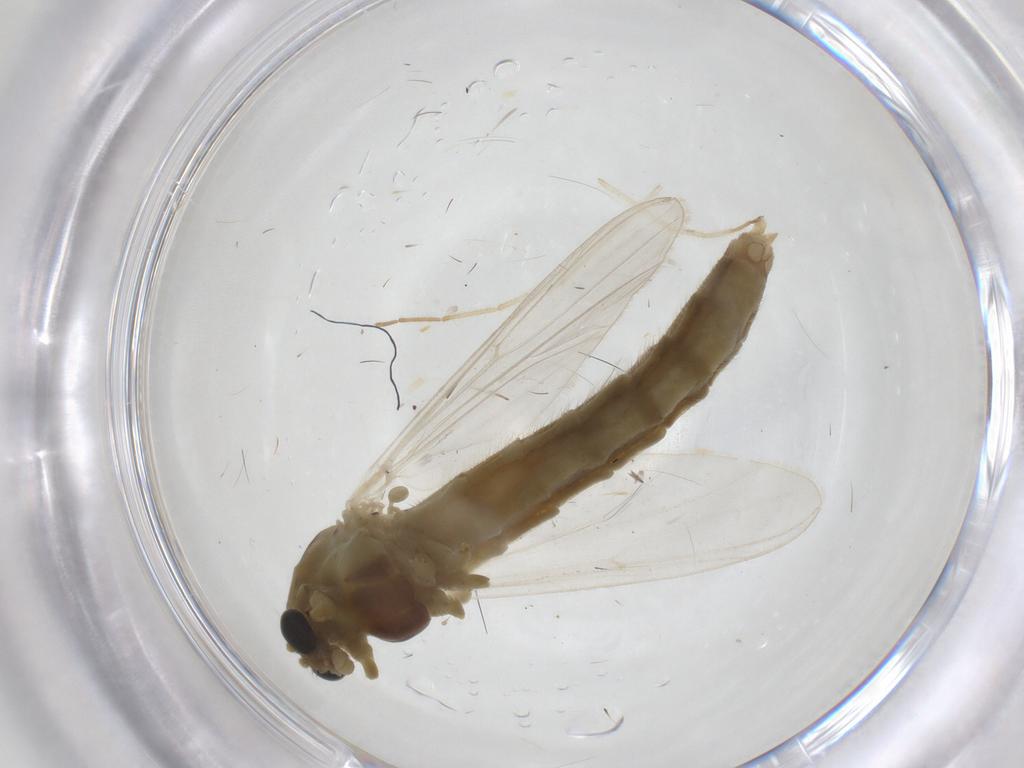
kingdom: Animalia
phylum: Arthropoda
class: Insecta
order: Diptera
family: Chironomidae
